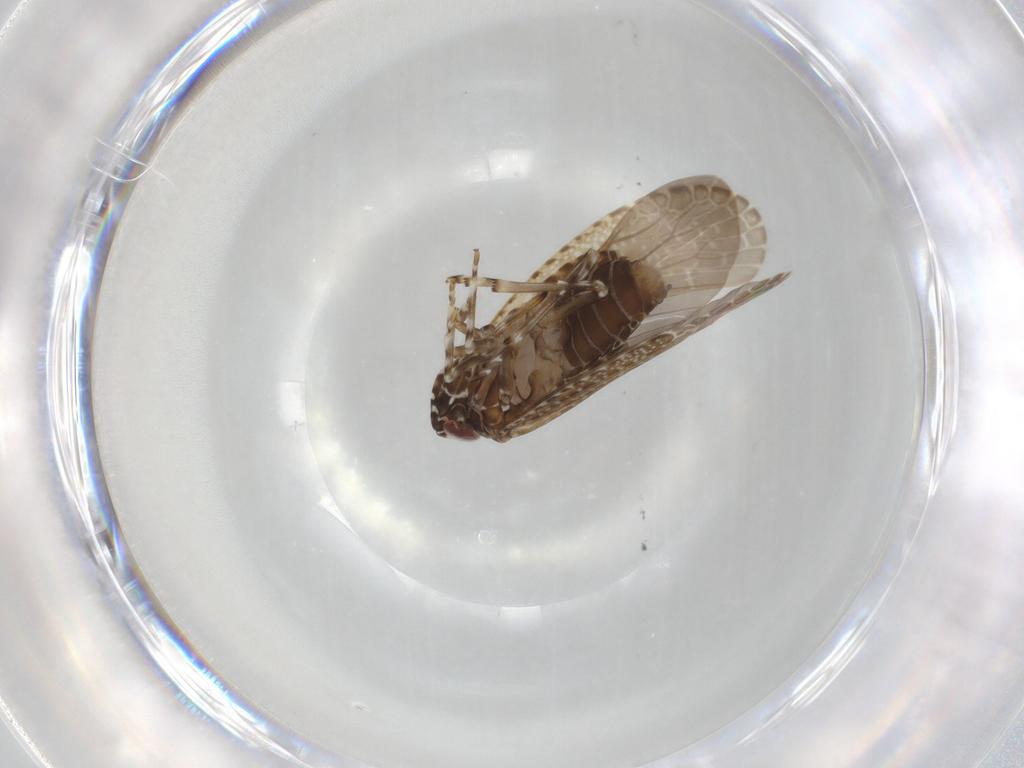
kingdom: Animalia
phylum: Arthropoda
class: Insecta
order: Hemiptera
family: Achilidae
